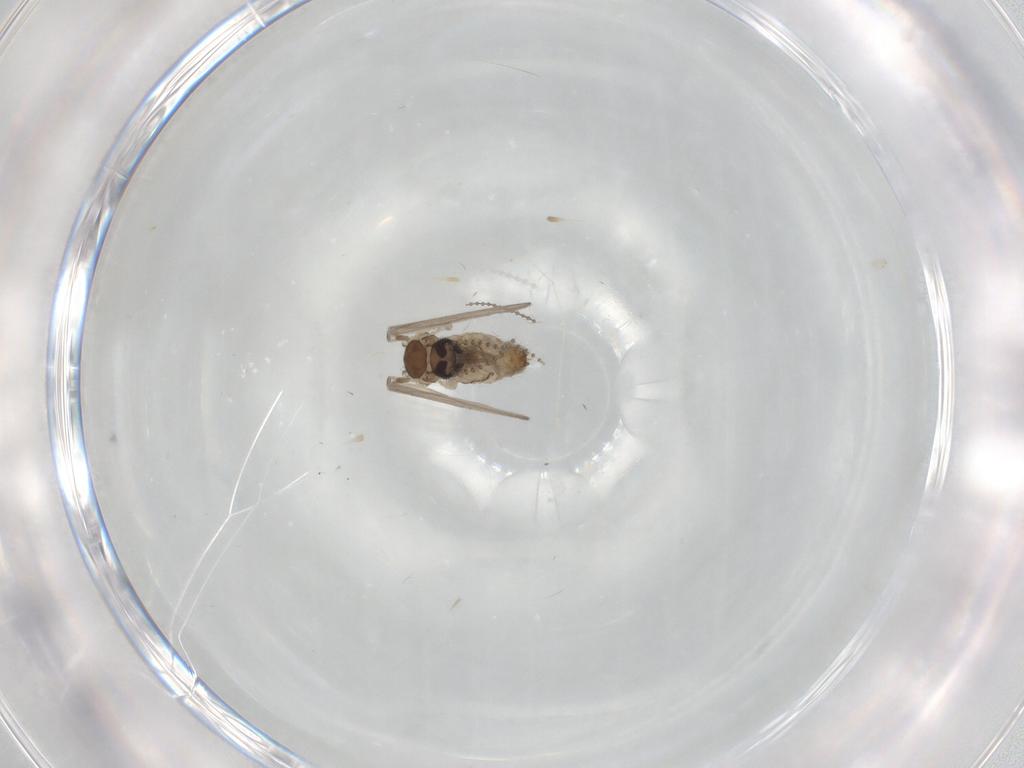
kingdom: Animalia
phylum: Arthropoda
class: Insecta
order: Diptera
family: Psychodidae
